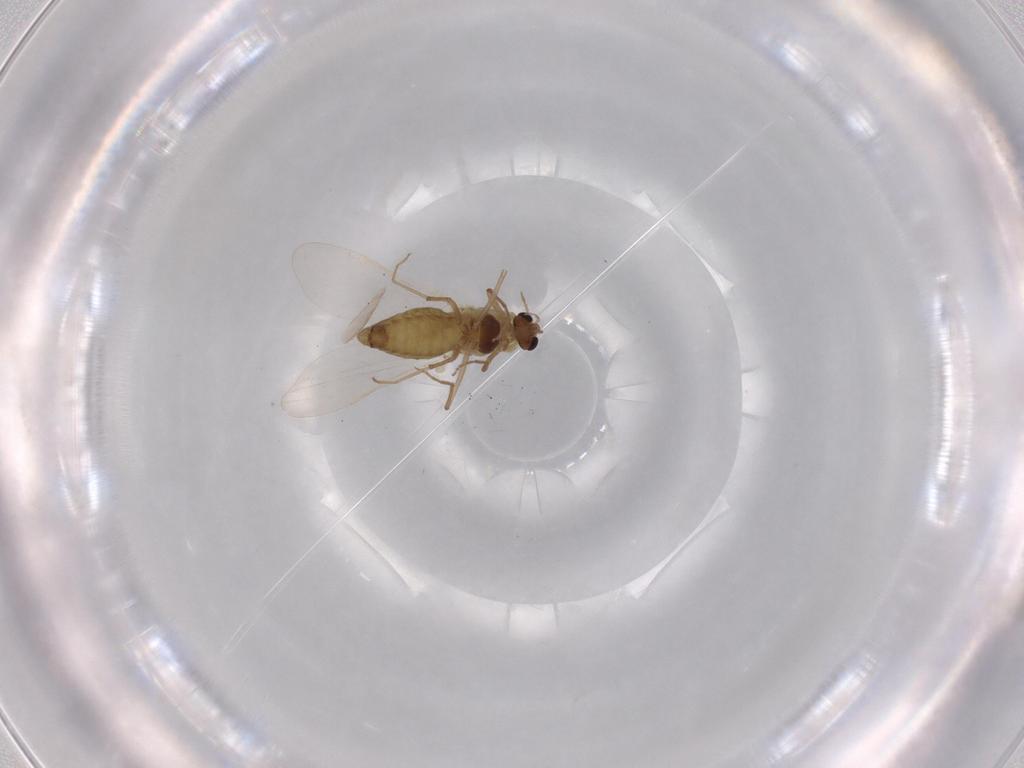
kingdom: Animalia
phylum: Arthropoda
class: Insecta
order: Diptera
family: Chironomidae
